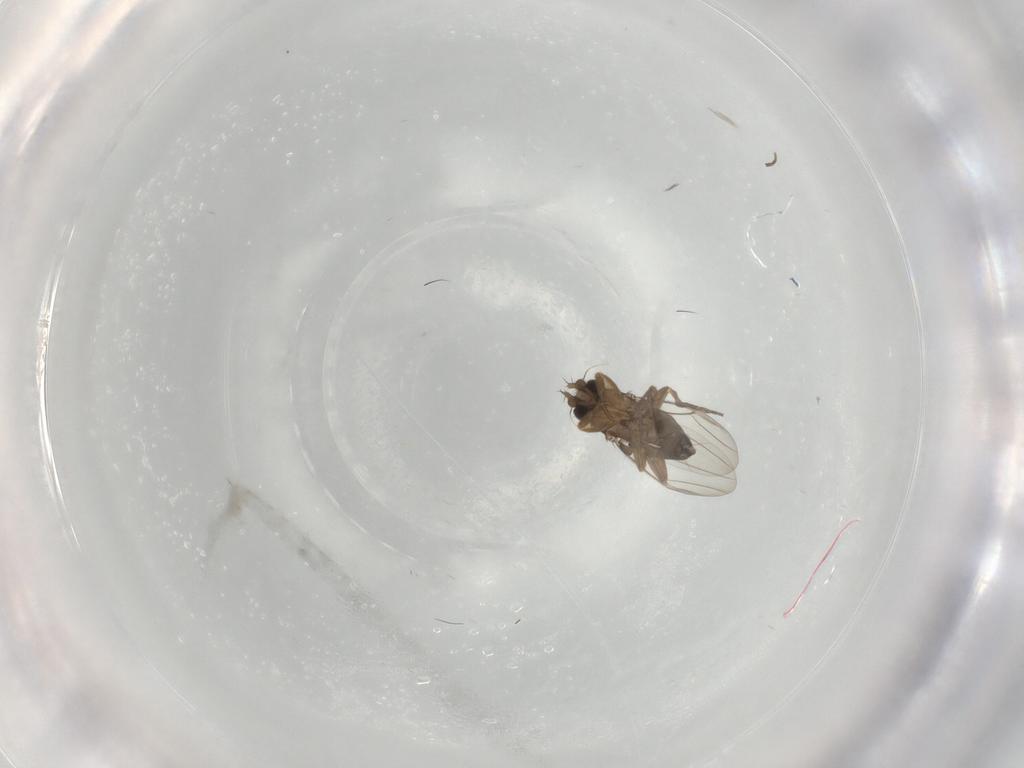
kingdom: Animalia
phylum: Arthropoda
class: Insecta
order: Diptera
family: Phoridae
